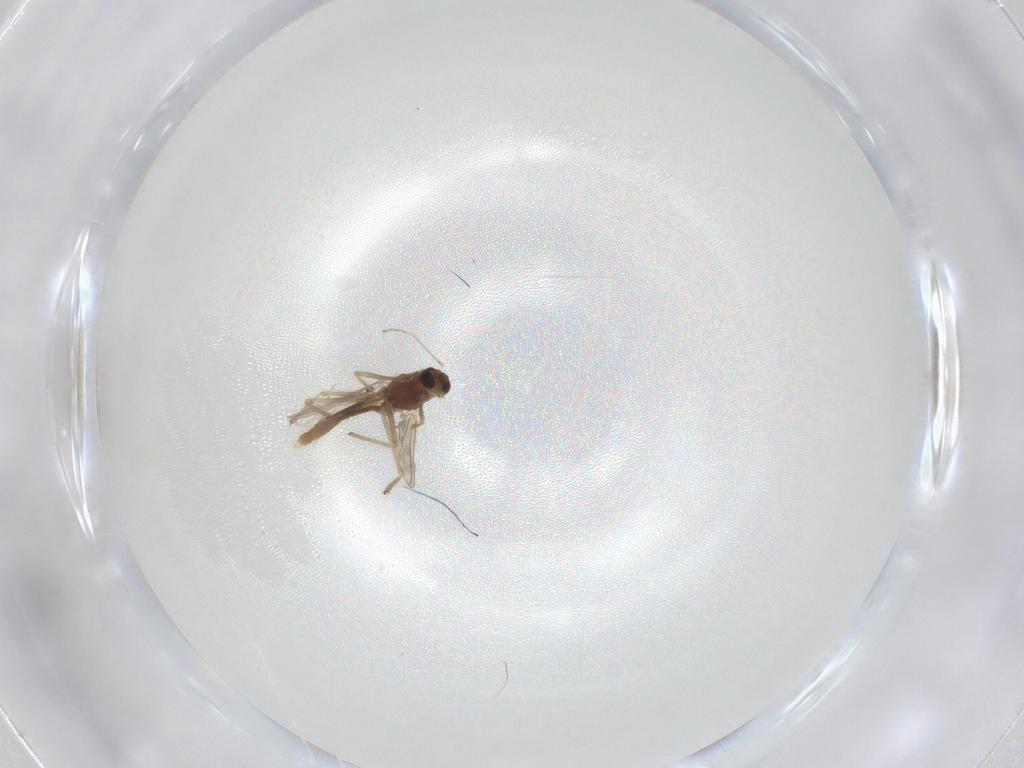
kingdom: Animalia
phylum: Arthropoda
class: Insecta
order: Diptera
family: Chironomidae
